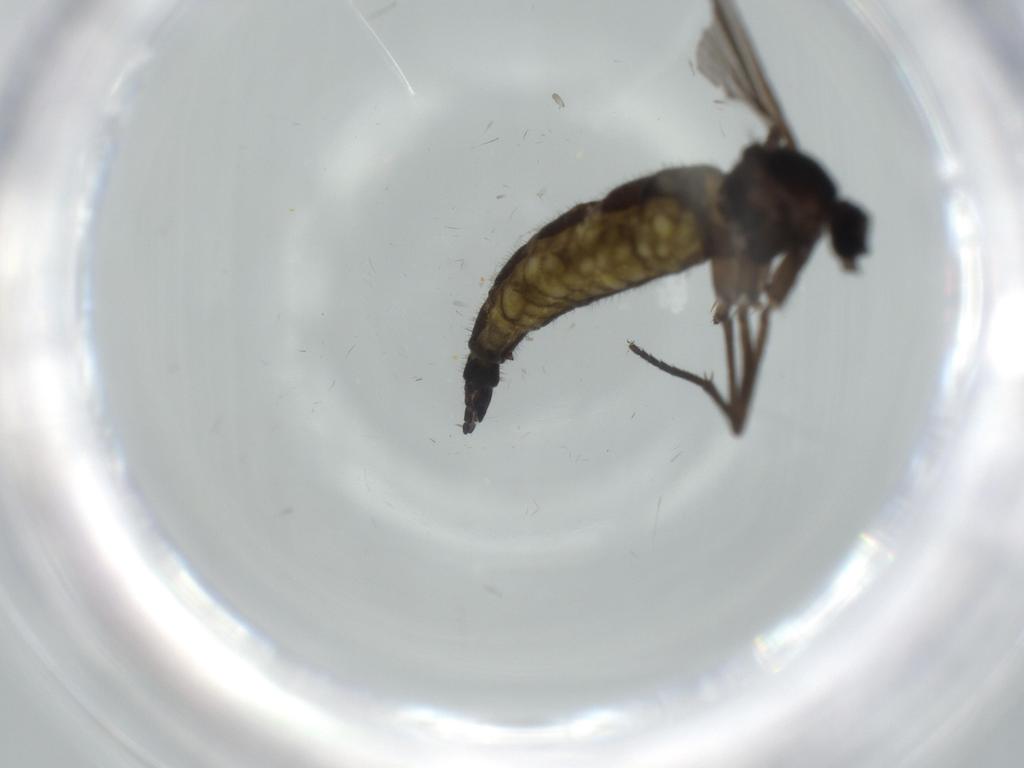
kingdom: Animalia
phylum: Arthropoda
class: Insecta
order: Diptera
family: Sciaridae
